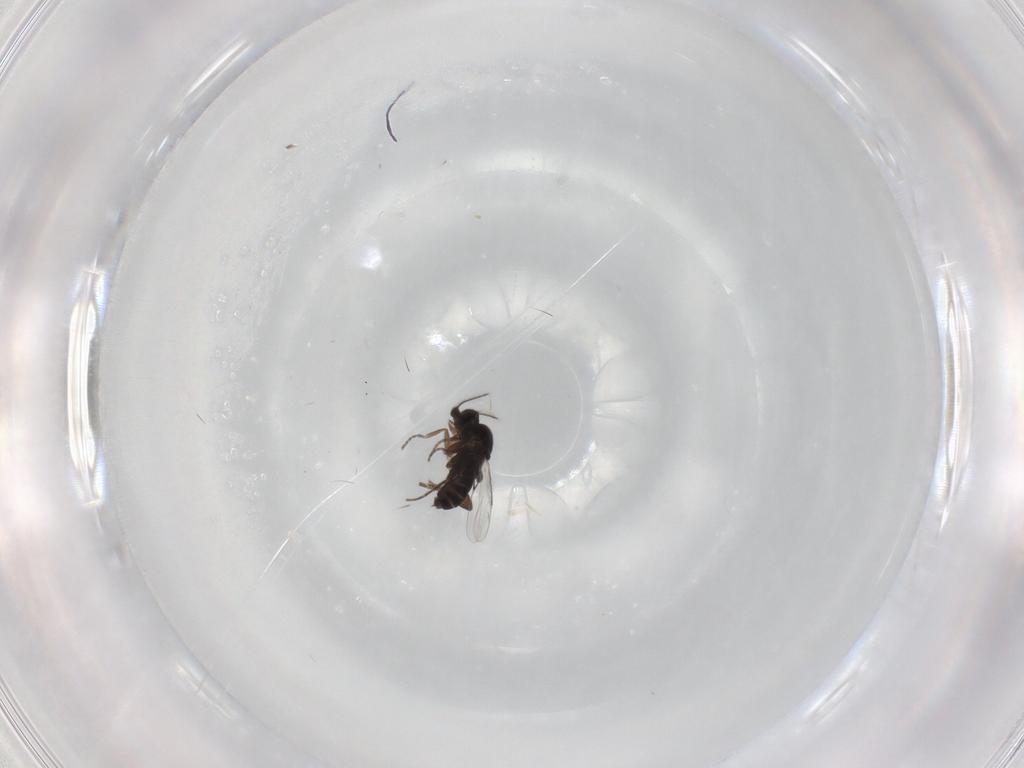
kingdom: Animalia
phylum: Arthropoda
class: Insecta
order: Diptera
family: Phoridae
